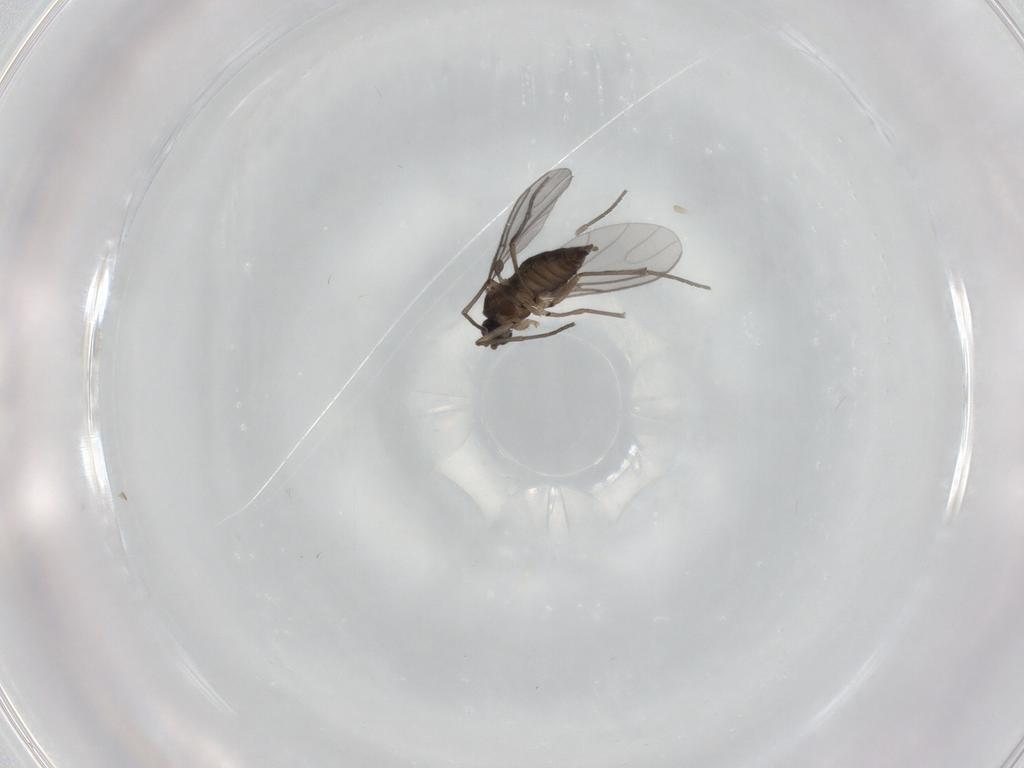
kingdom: Animalia
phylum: Arthropoda
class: Insecta
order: Diptera
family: Sciaridae
